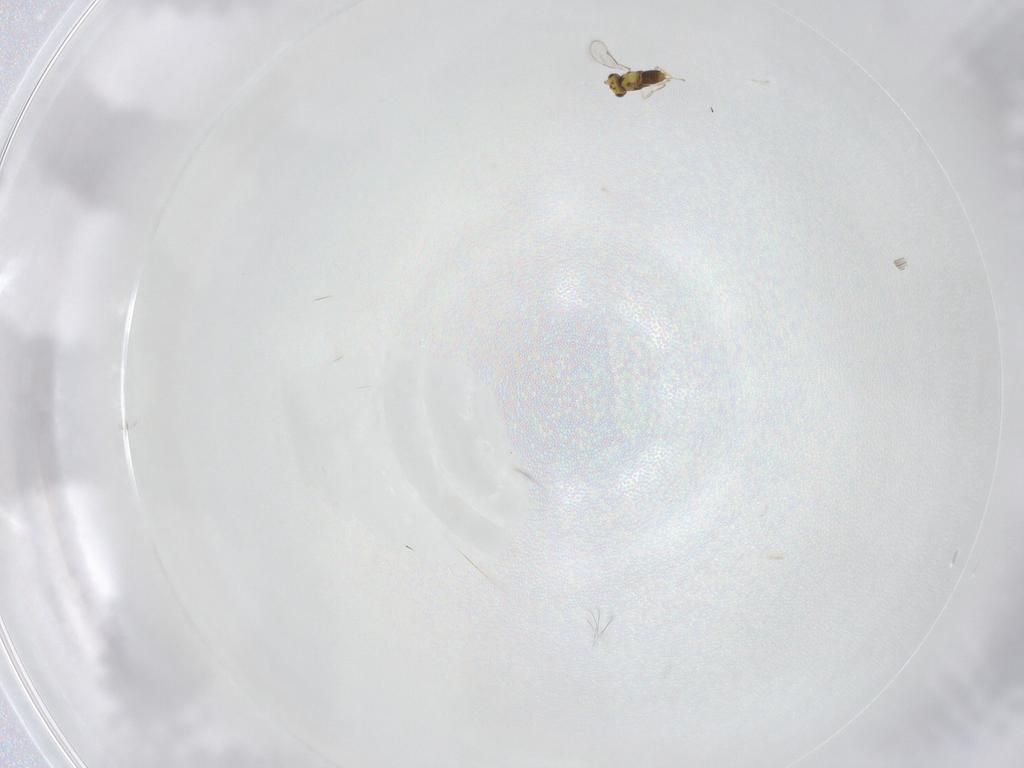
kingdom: Animalia
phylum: Arthropoda
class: Insecta
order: Hymenoptera
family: Aphelinidae
